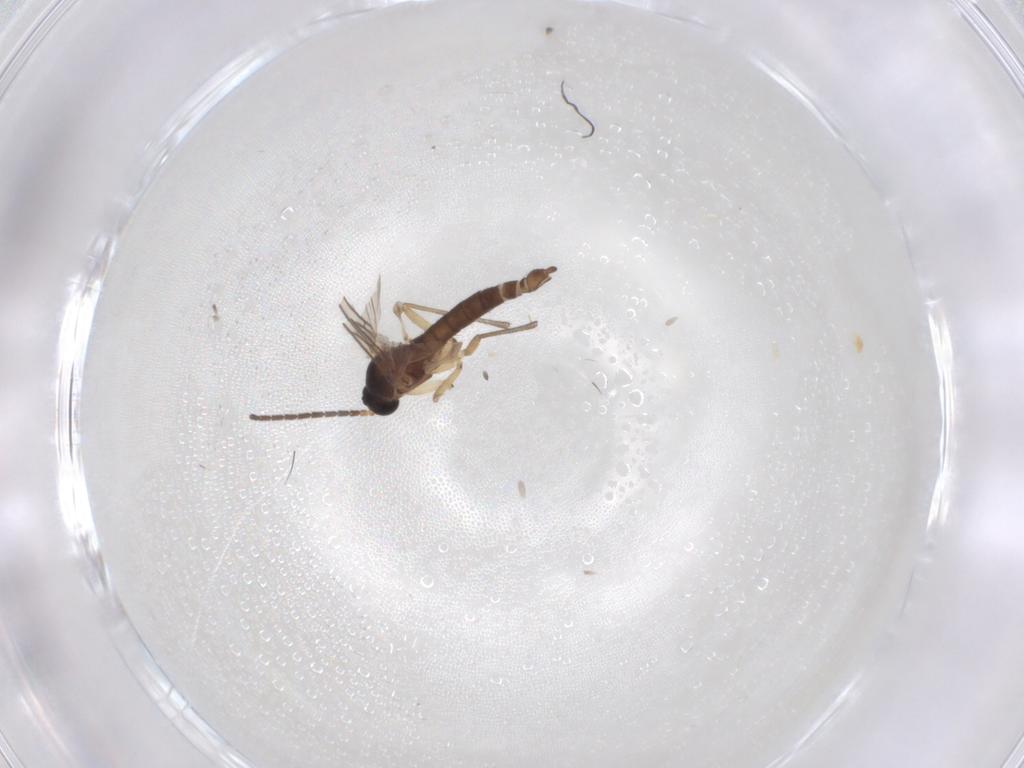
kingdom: Animalia
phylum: Arthropoda
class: Insecta
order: Diptera
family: Sciaridae
